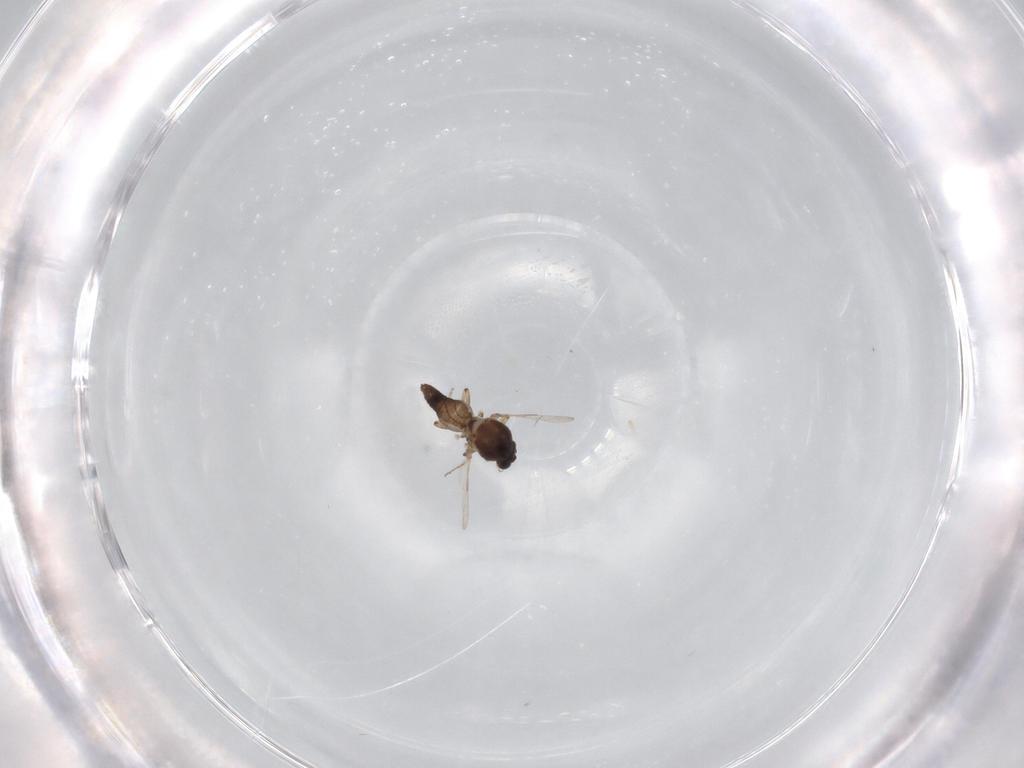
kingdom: Animalia
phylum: Arthropoda
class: Insecta
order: Diptera
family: Ceratopogonidae
